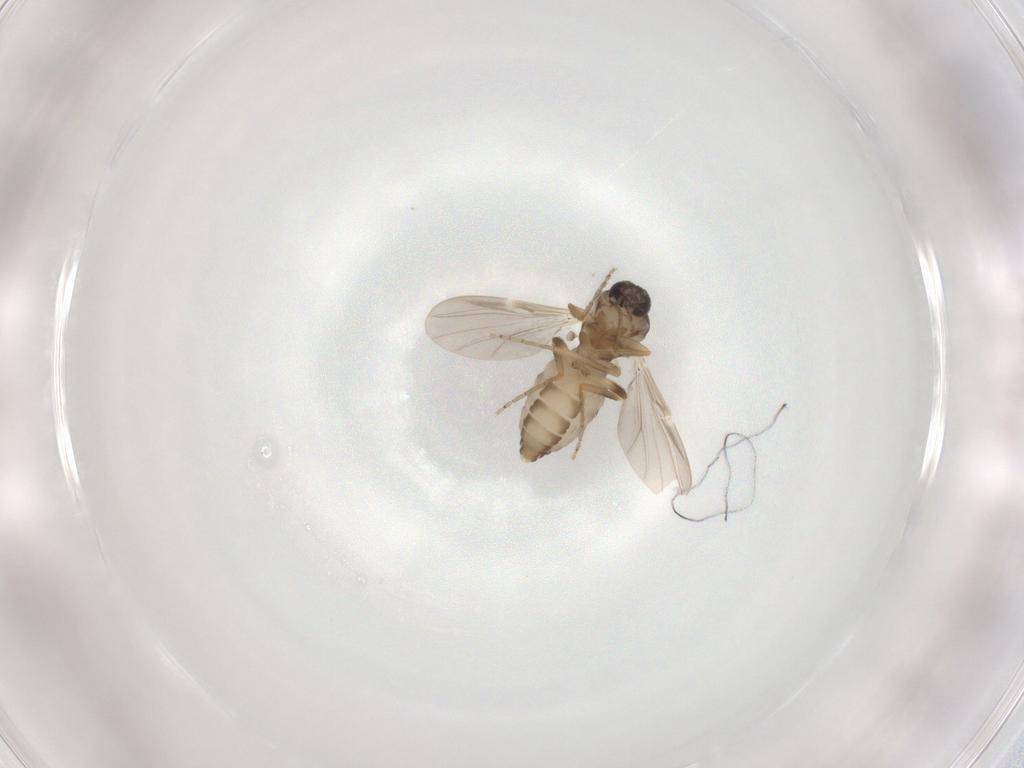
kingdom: Animalia
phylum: Arthropoda
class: Insecta
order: Diptera
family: Ceratopogonidae
